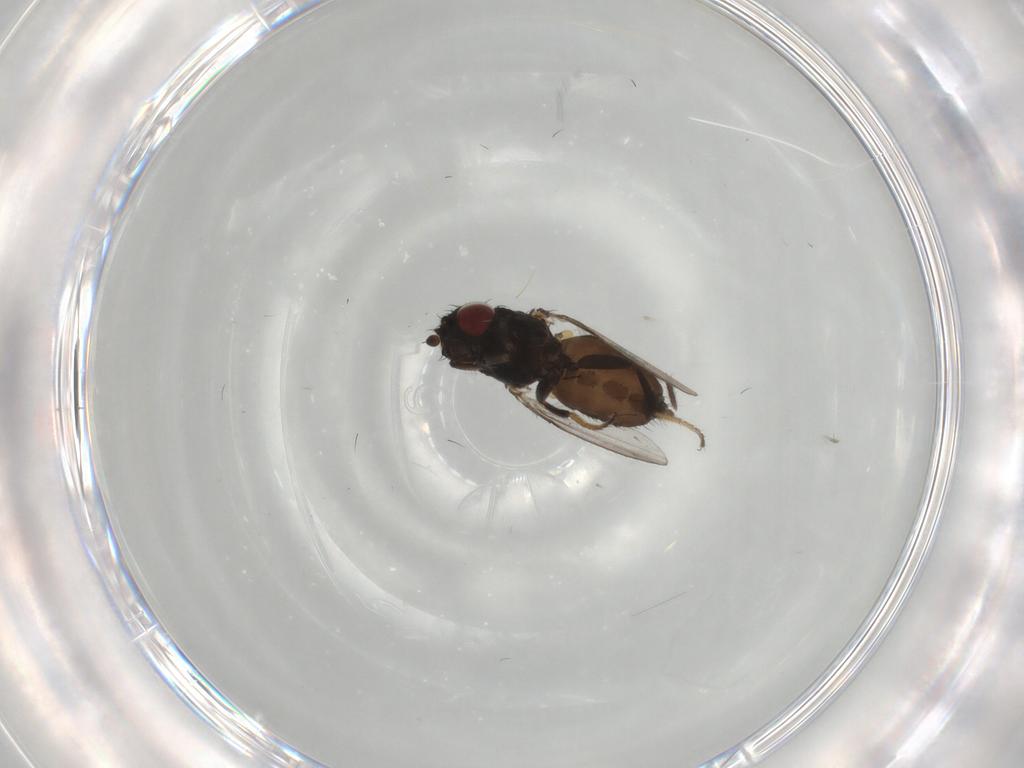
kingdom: Animalia
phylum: Arthropoda
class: Insecta
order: Diptera
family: Milichiidae
